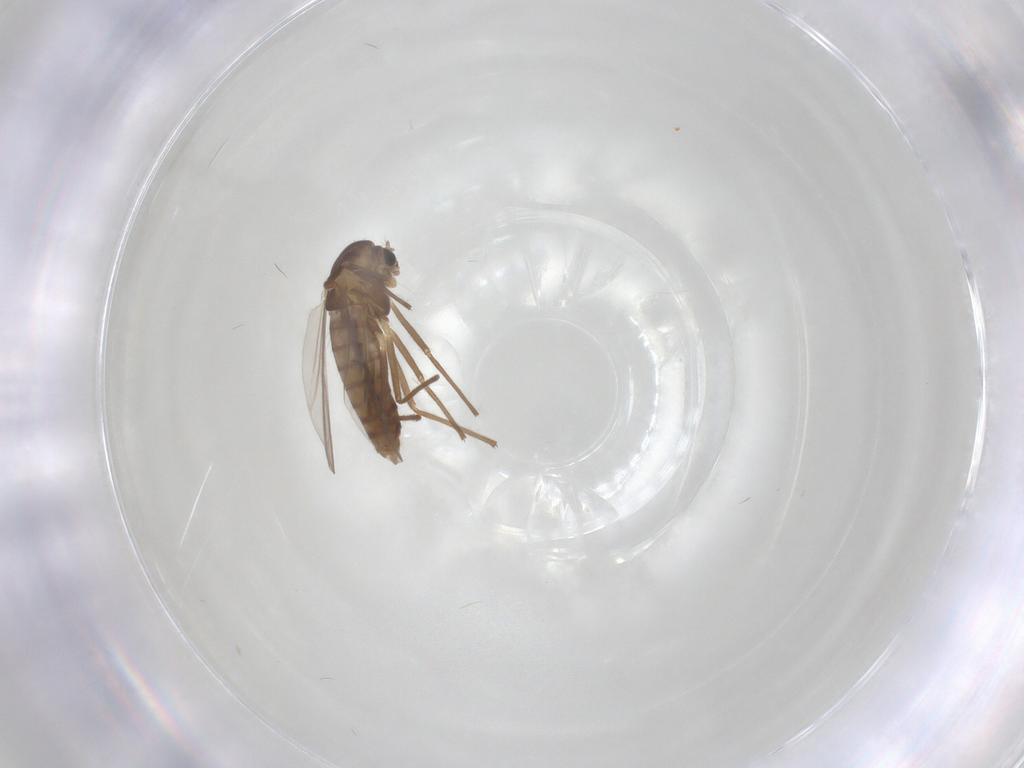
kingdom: Animalia
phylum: Arthropoda
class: Insecta
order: Diptera
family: Chironomidae
